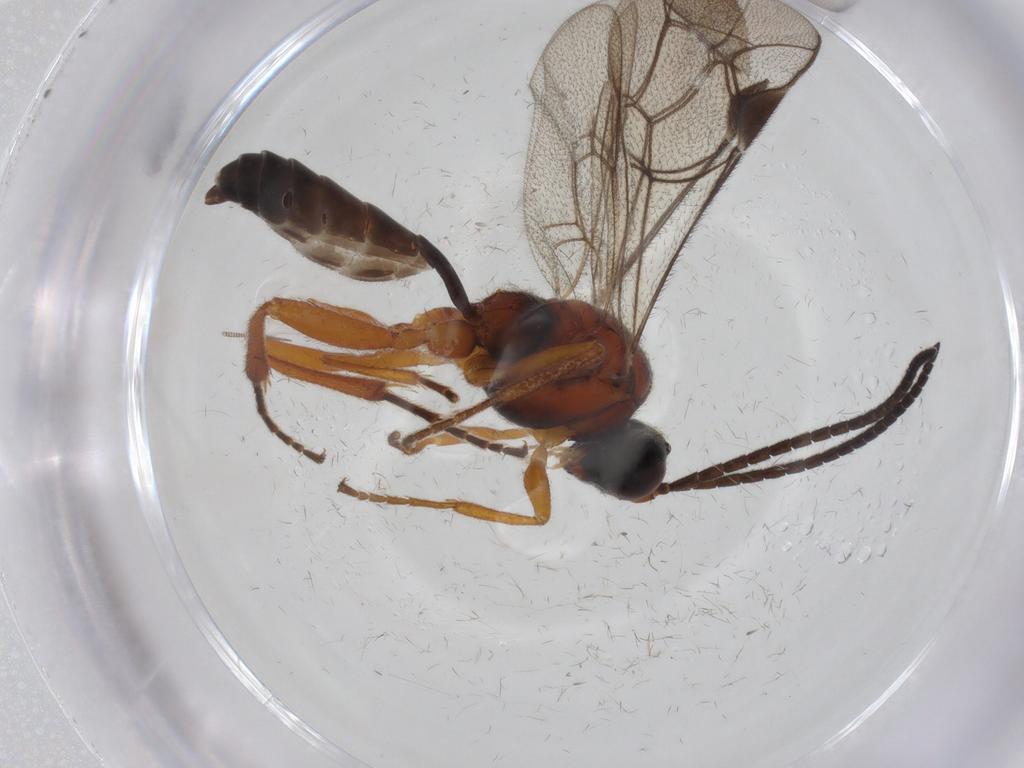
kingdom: Animalia
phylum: Arthropoda
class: Insecta
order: Hymenoptera
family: Ichneumonidae
